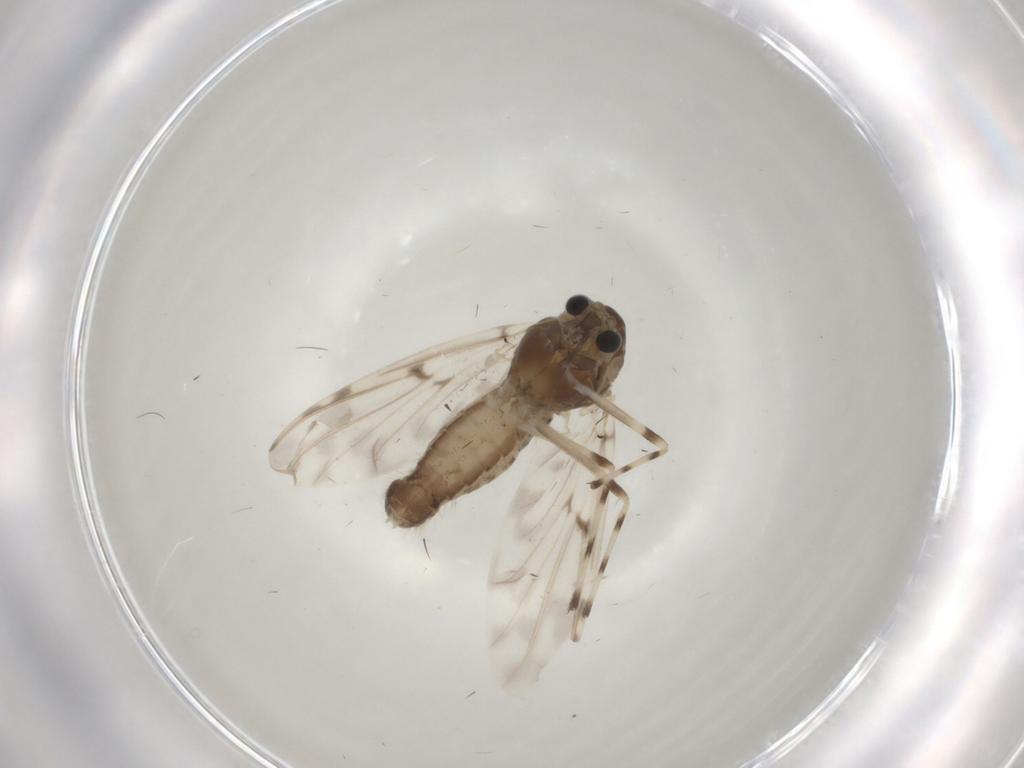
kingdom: Animalia
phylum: Arthropoda
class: Insecta
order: Diptera
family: Chironomidae
